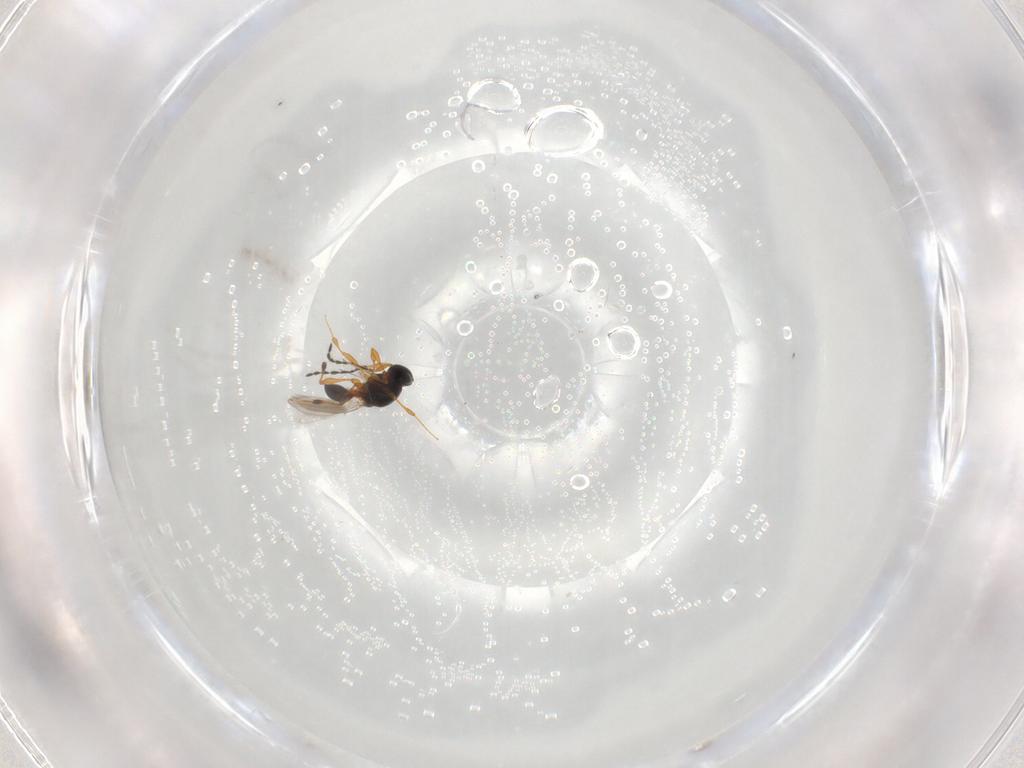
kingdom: Animalia
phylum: Arthropoda
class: Insecta
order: Hymenoptera
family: Platygastridae
